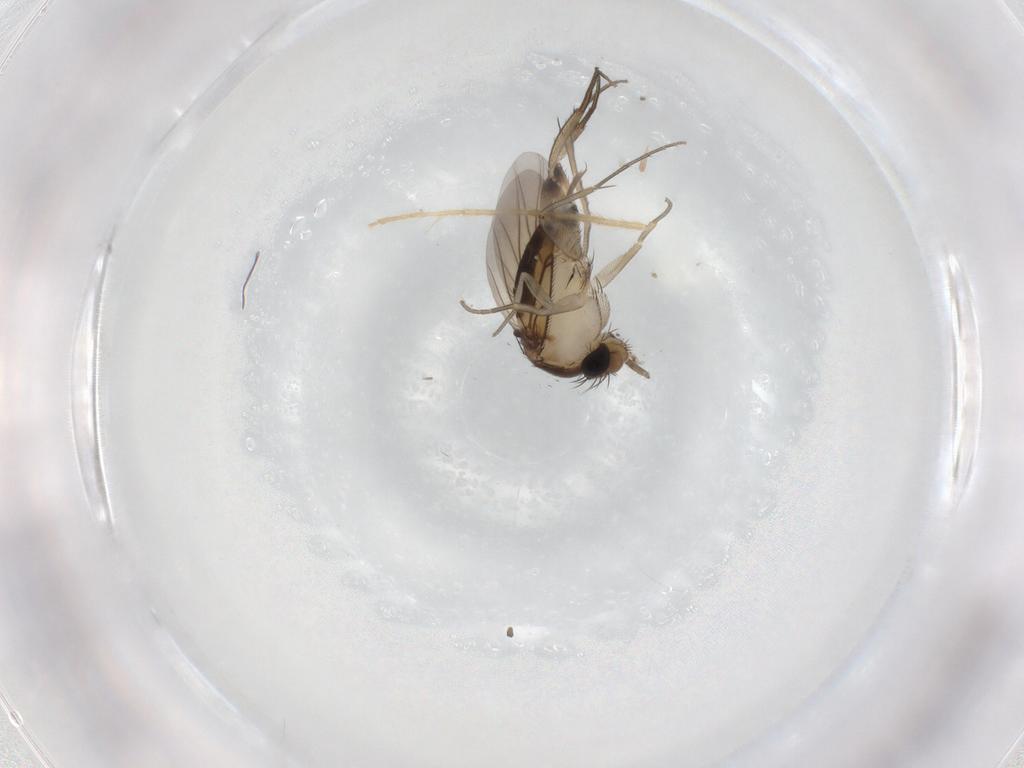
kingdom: Animalia
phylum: Arthropoda
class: Insecta
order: Diptera
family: Phoridae
